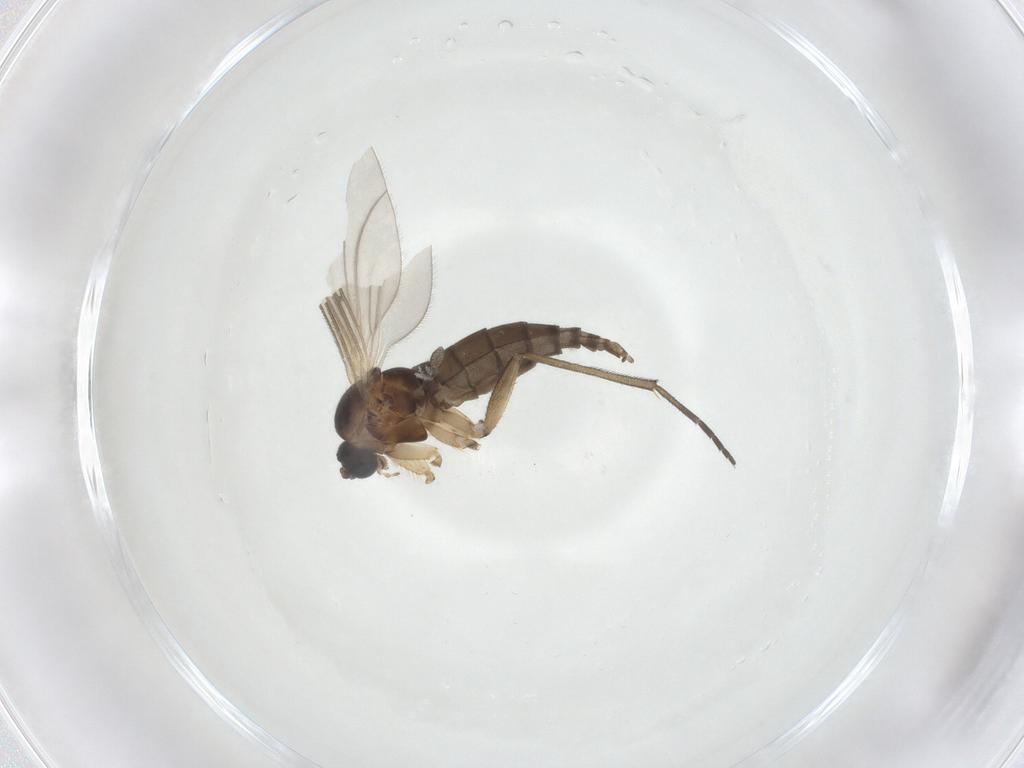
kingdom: Animalia
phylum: Arthropoda
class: Insecta
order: Diptera
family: Sciaridae
